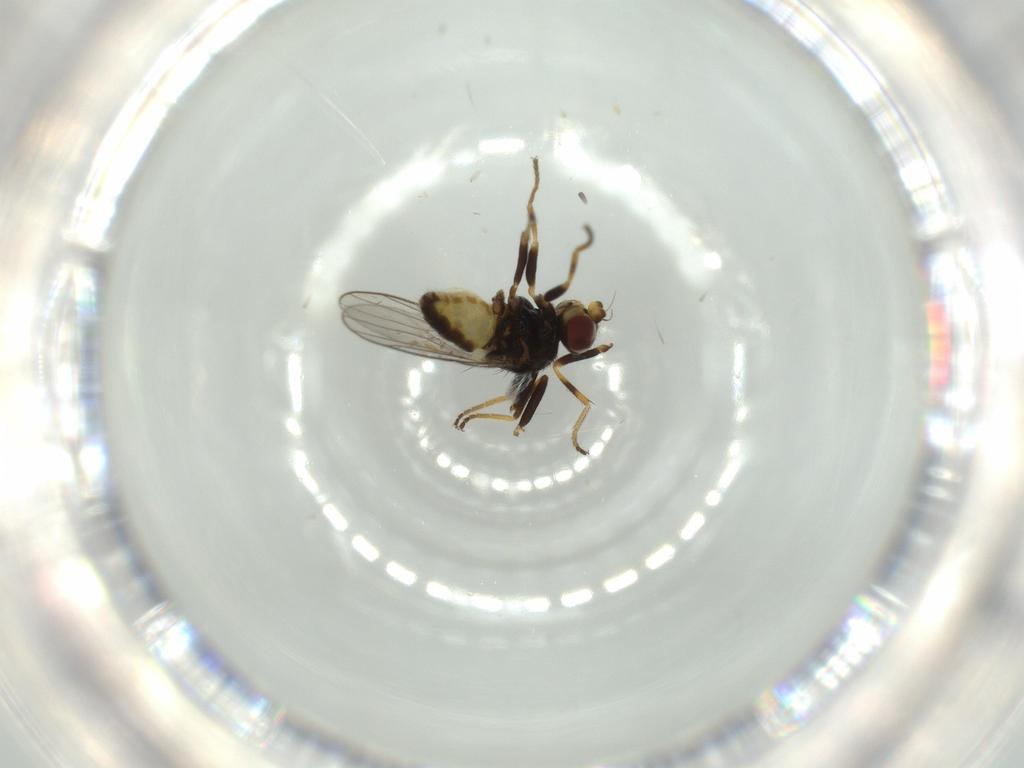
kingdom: Animalia
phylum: Arthropoda
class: Insecta
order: Diptera
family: Chloropidae
